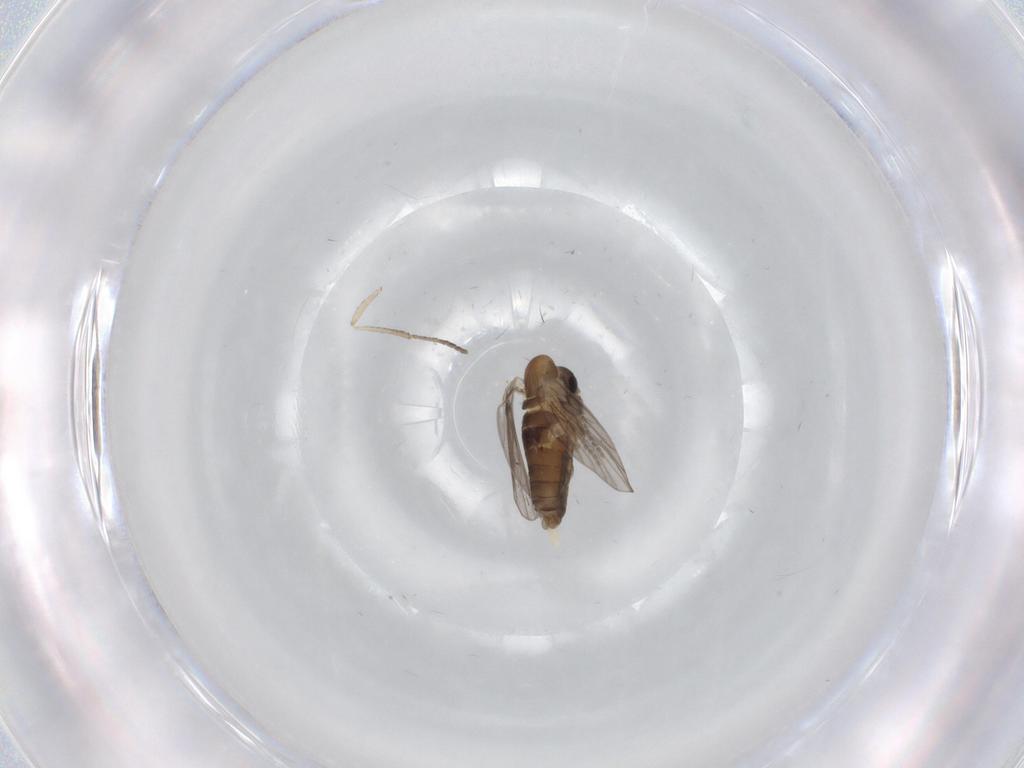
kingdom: Animalia
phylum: Arthropoda
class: Insecta
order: Diptera
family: Psychodidae
